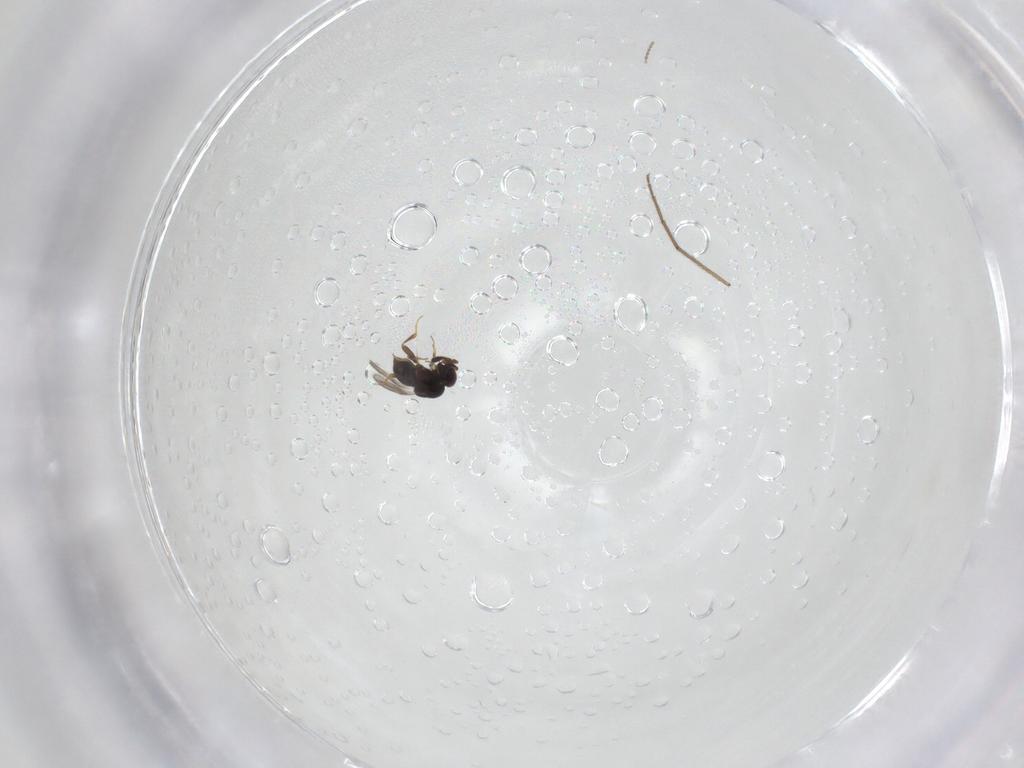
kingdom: Animalia
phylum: Arthropoda
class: Insecta
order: Diptera
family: Chironomidae
